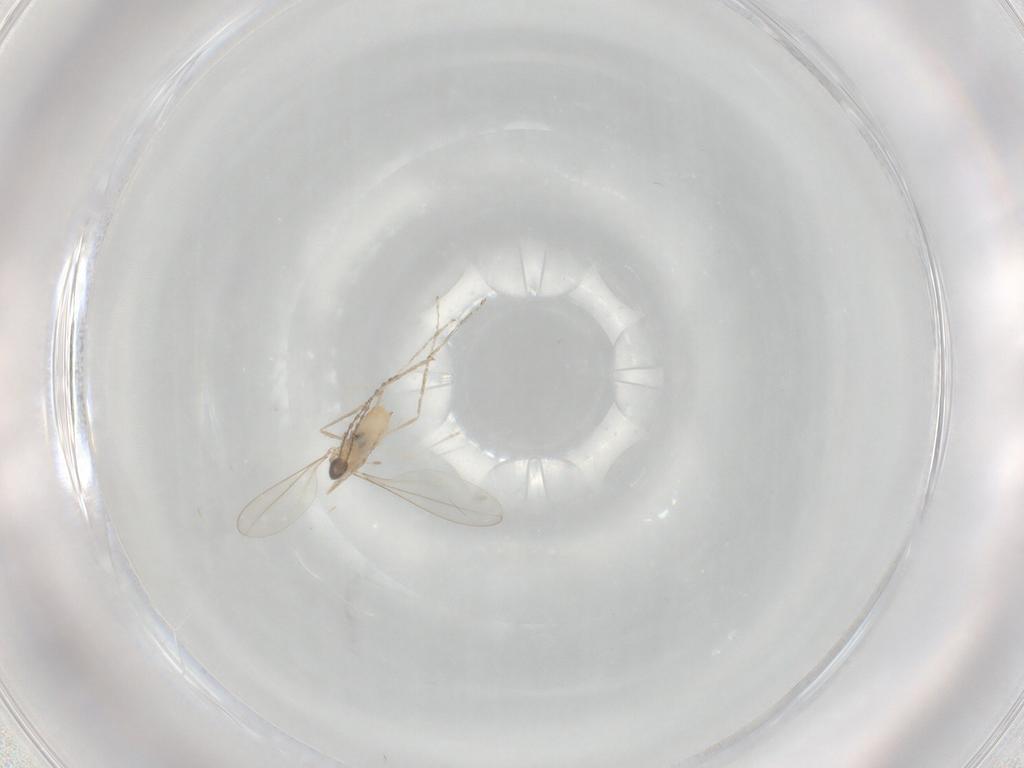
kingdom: Animalia
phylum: Arthropoda
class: Insecta
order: Diptera
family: Cecidomyiidae
